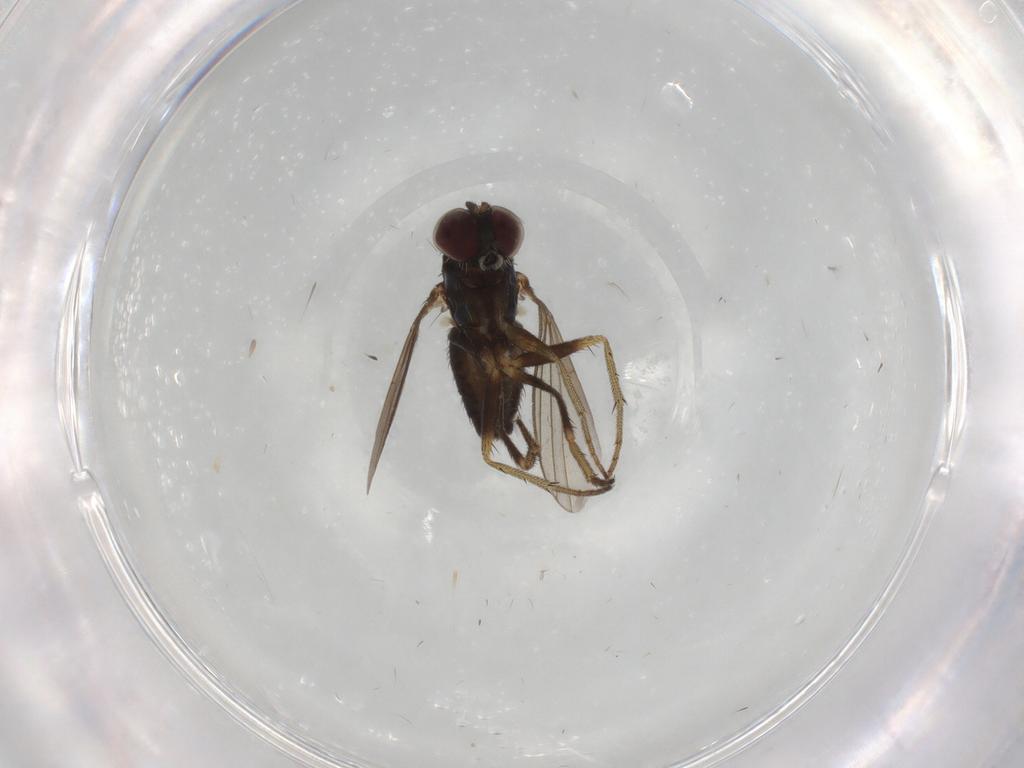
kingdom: Animalia
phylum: Arthropoda
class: Insecta
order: Diptera
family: Dolichopodidae
